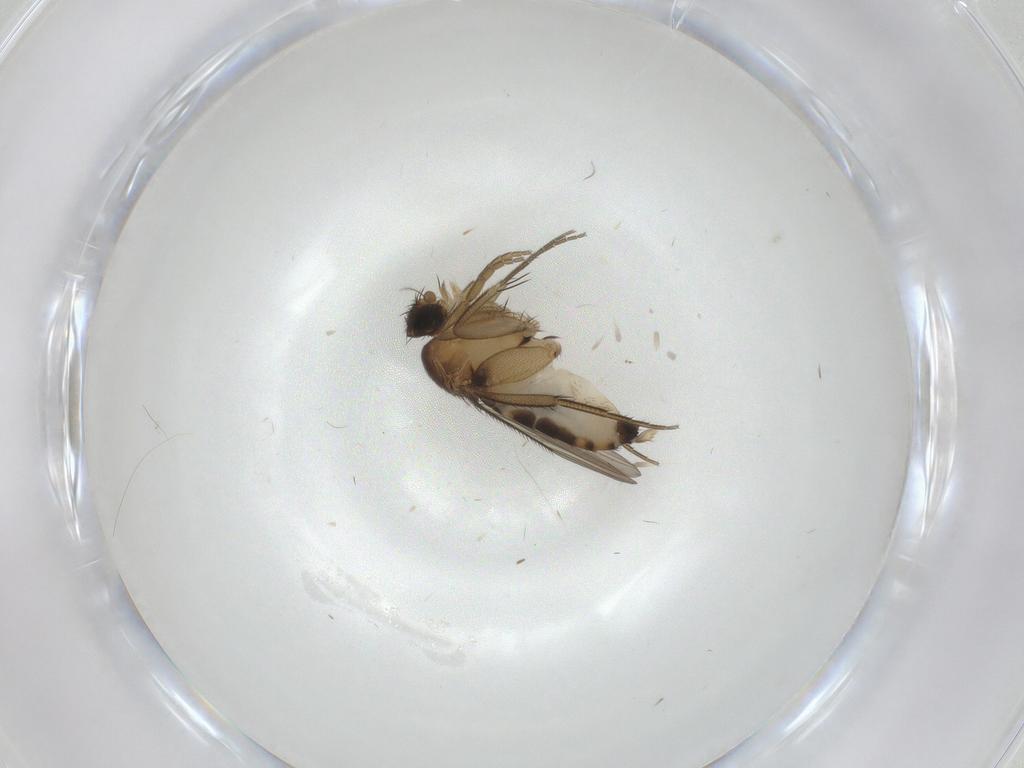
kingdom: Animalia
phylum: Arthropoda
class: Insecta
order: Diptera
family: Phoridae
